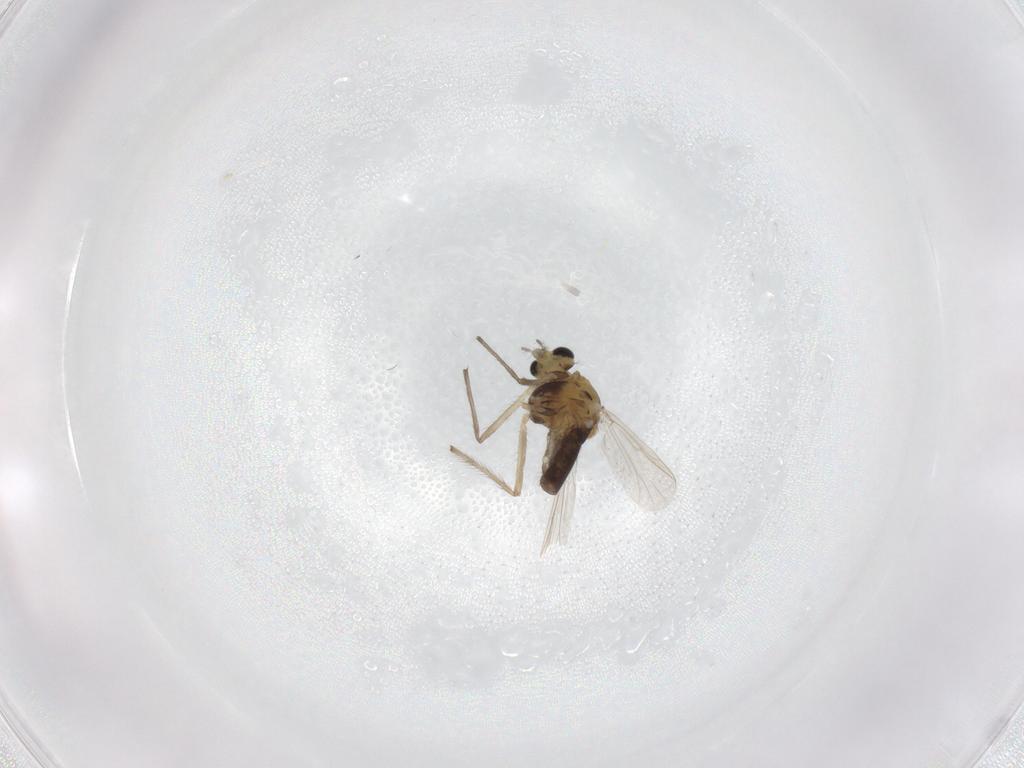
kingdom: Animalia
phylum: Arthropoda
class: Insecta
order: Diptera
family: Chironomidae
